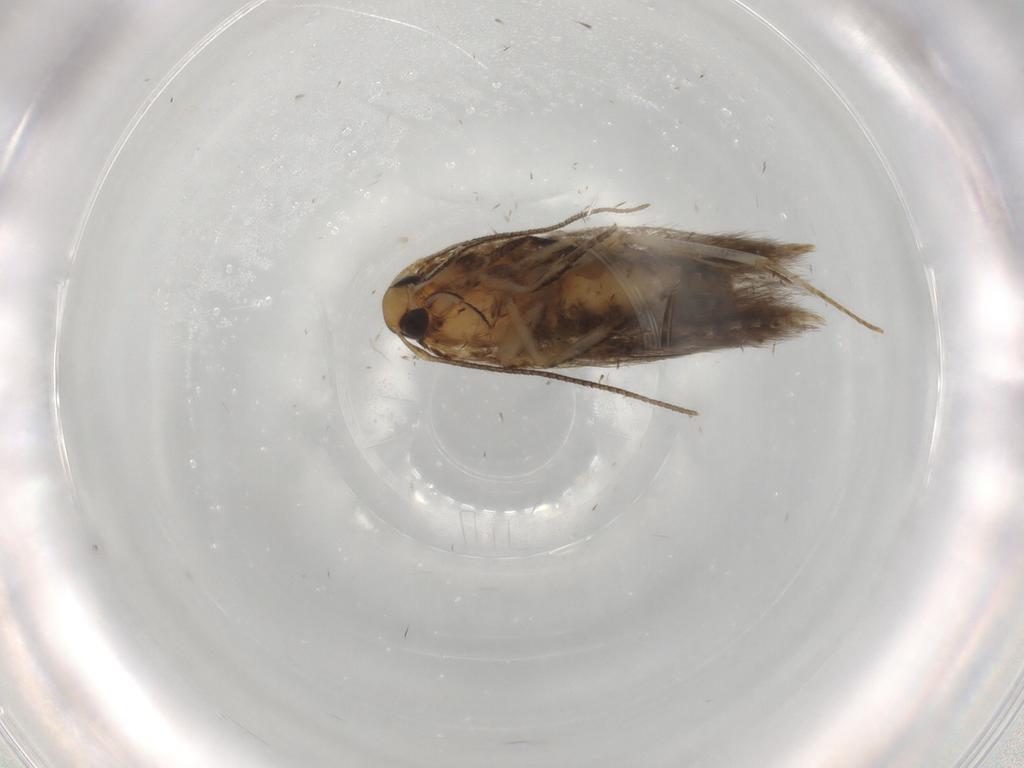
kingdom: Animalia
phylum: Arthropoda
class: Insecta
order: Lepidoptera
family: Cosmopterigidae
